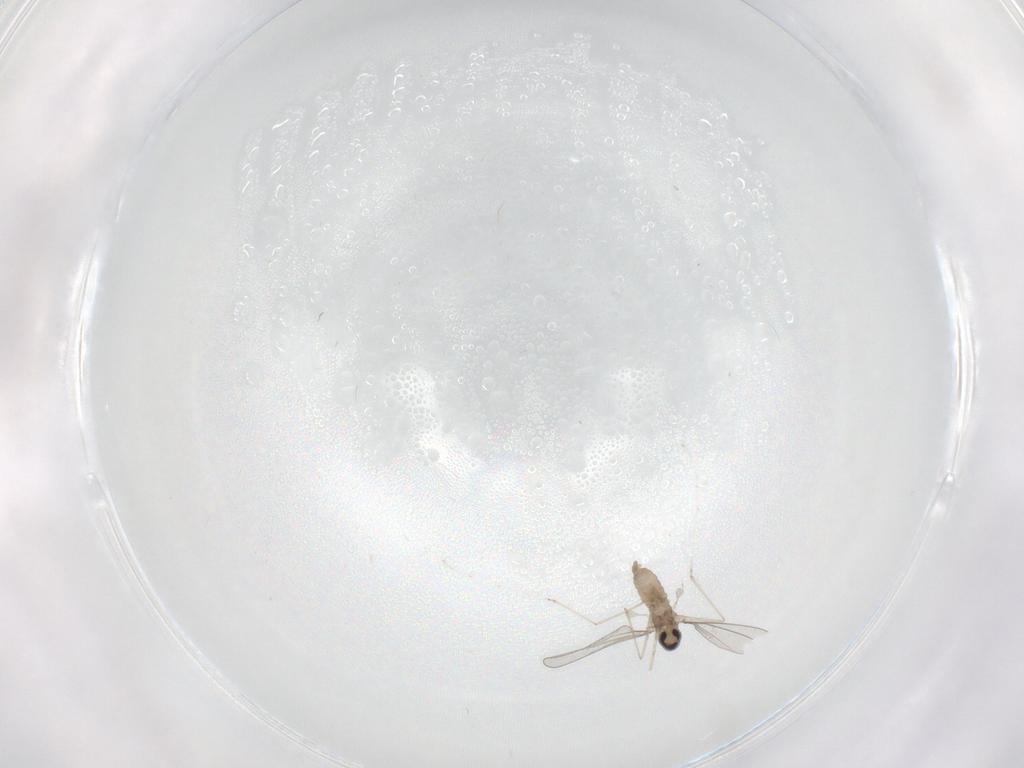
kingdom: Animalia
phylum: Arthropoda
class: Insecta
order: Diptera
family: Cecidomyiidae
